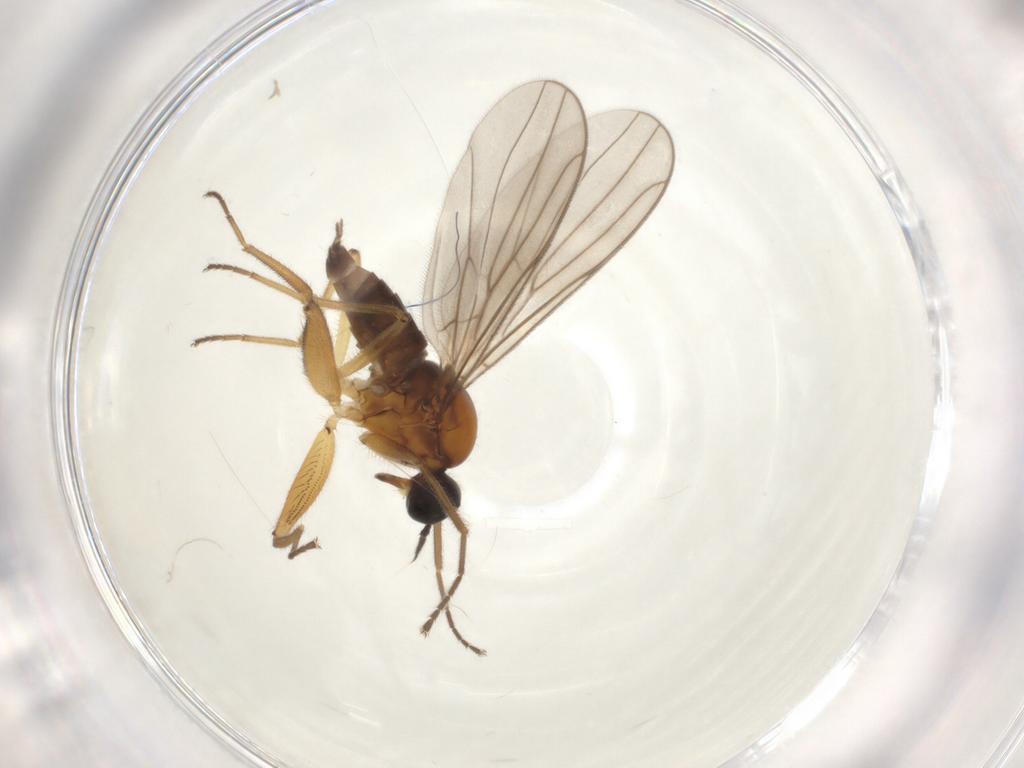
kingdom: Animalia
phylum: Arthropoda
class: Insecta
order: Diptera
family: Hybotidae
